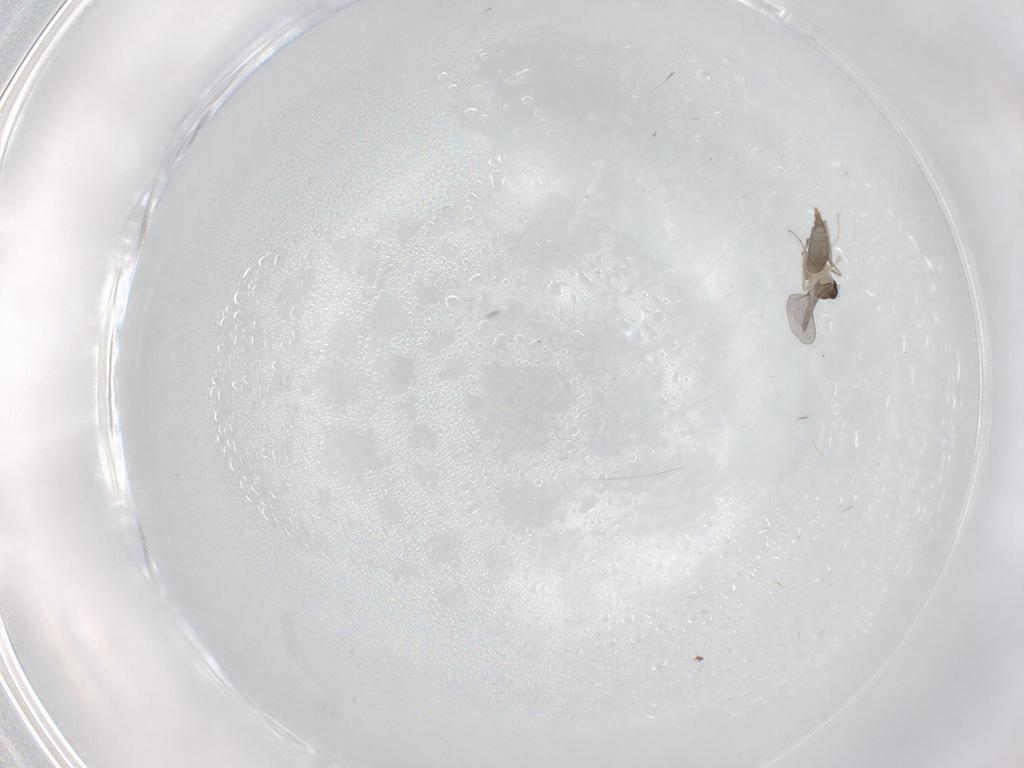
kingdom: Animalia
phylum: Arthropoda
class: Insecta
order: Diptera
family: Cecidomyiidae
